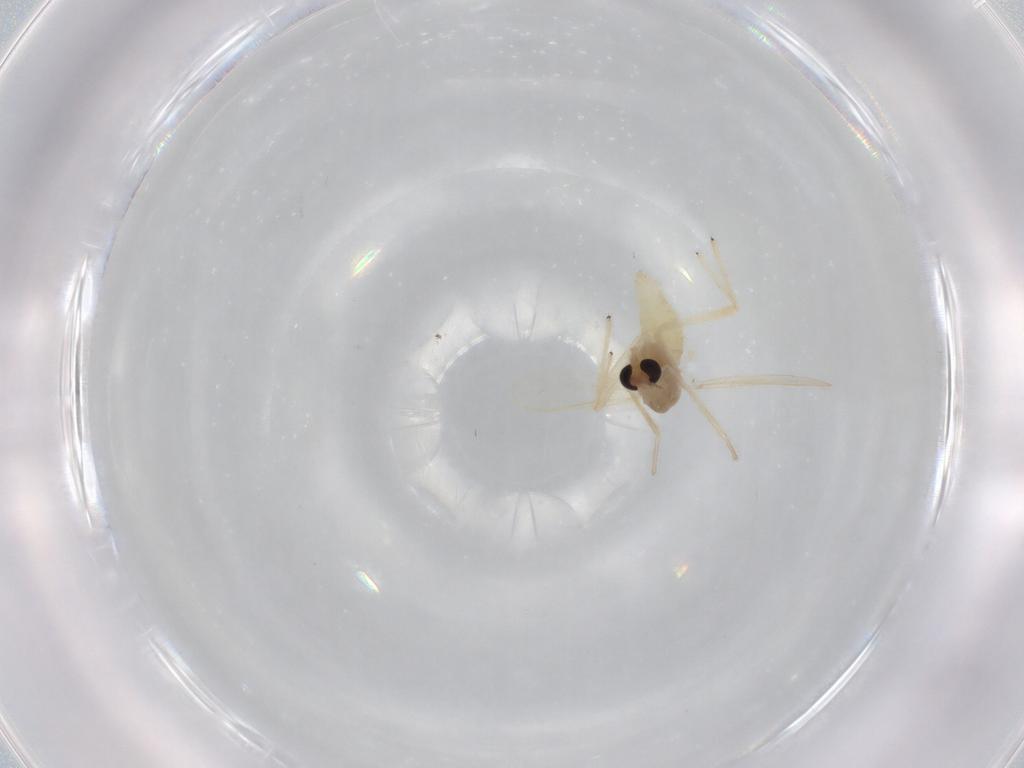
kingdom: Animalia
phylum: Arthropoda
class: Insecta
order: Diptera
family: Chironomidae
